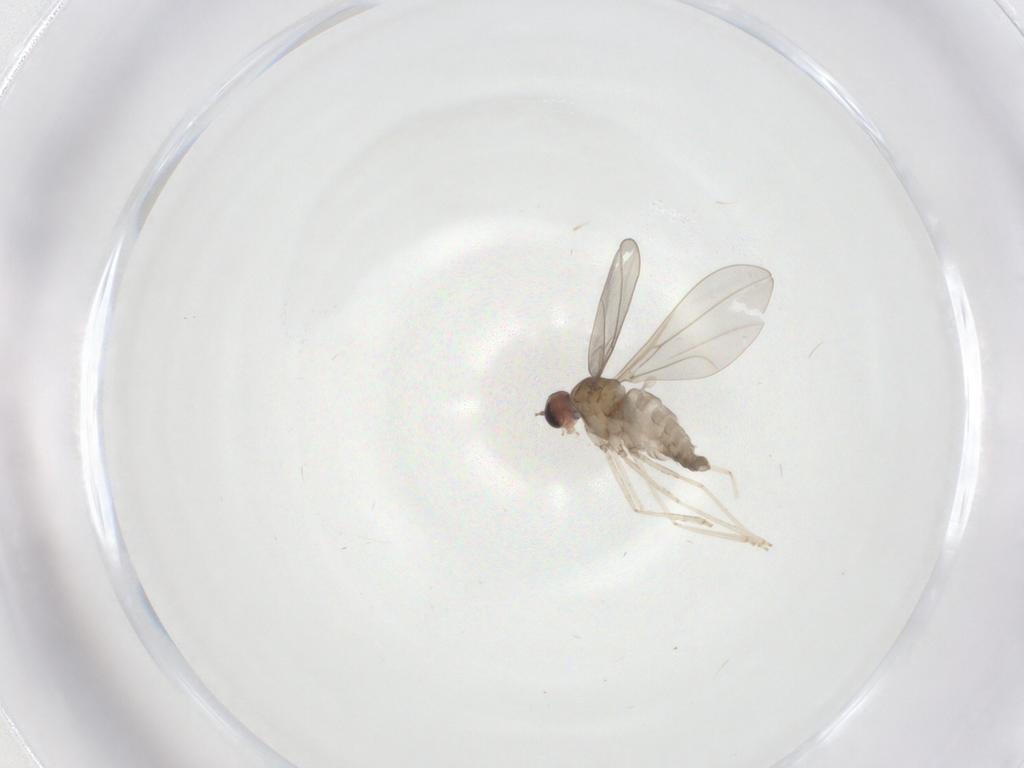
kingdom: Animalia
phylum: Arthropoda
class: Insecta
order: Diptera
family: Cecidomyiidae
